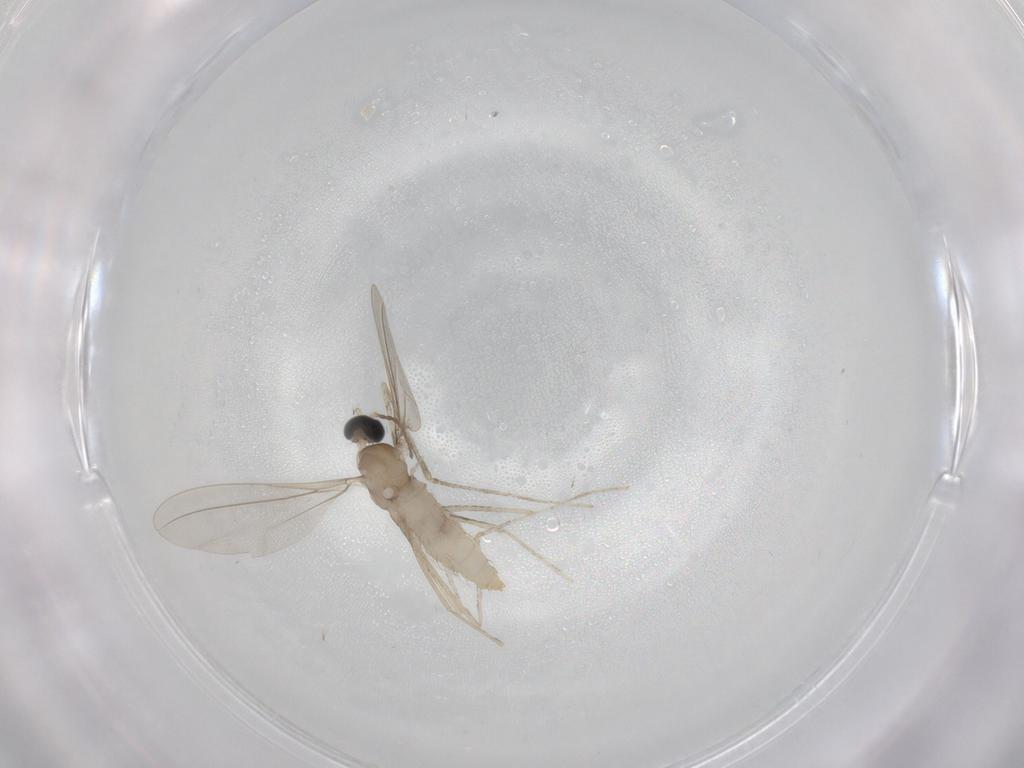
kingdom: Animalia
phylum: Arthropoda
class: Insecta
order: Diptera
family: Cecidomyiidae
